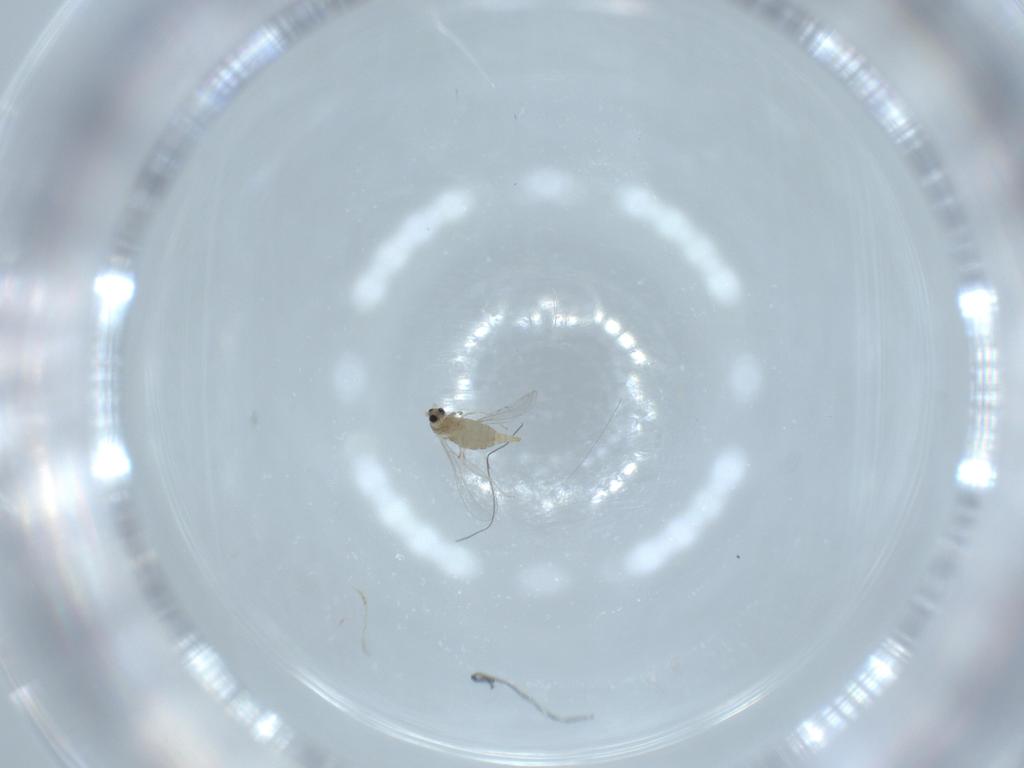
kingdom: Animalia
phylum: Arthropoda
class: Insecta
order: Diptera
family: Cecidomyiidae
